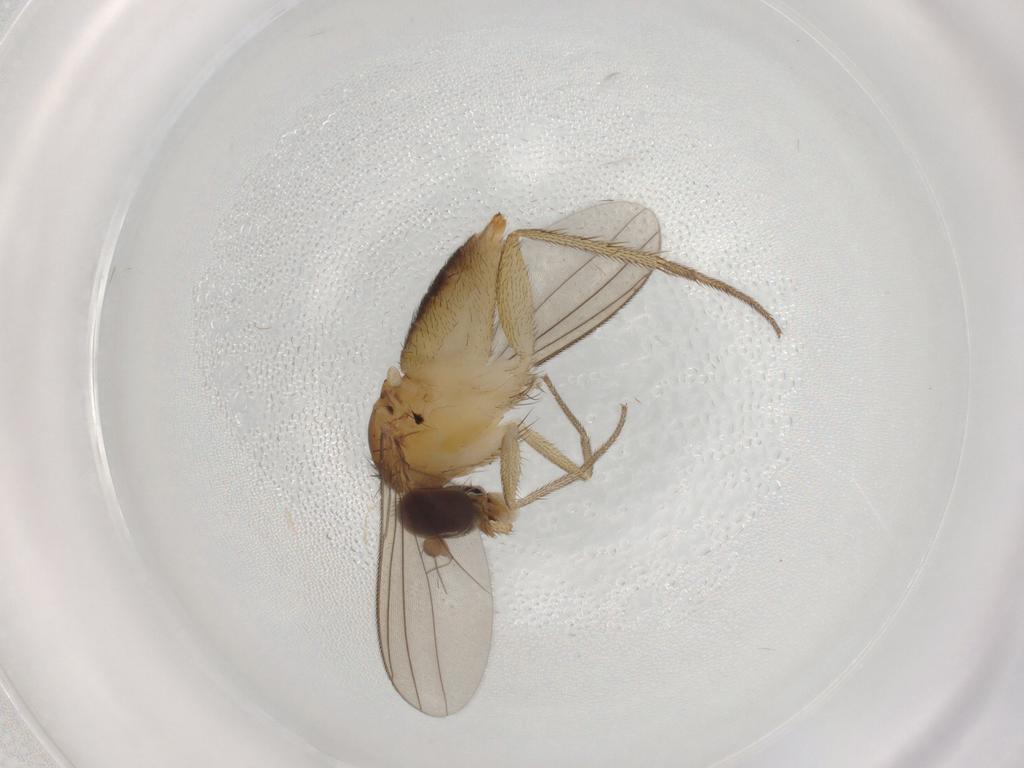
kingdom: Animalia
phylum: Arthropoda
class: Insecta
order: Diptera
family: Dolichopodidae
